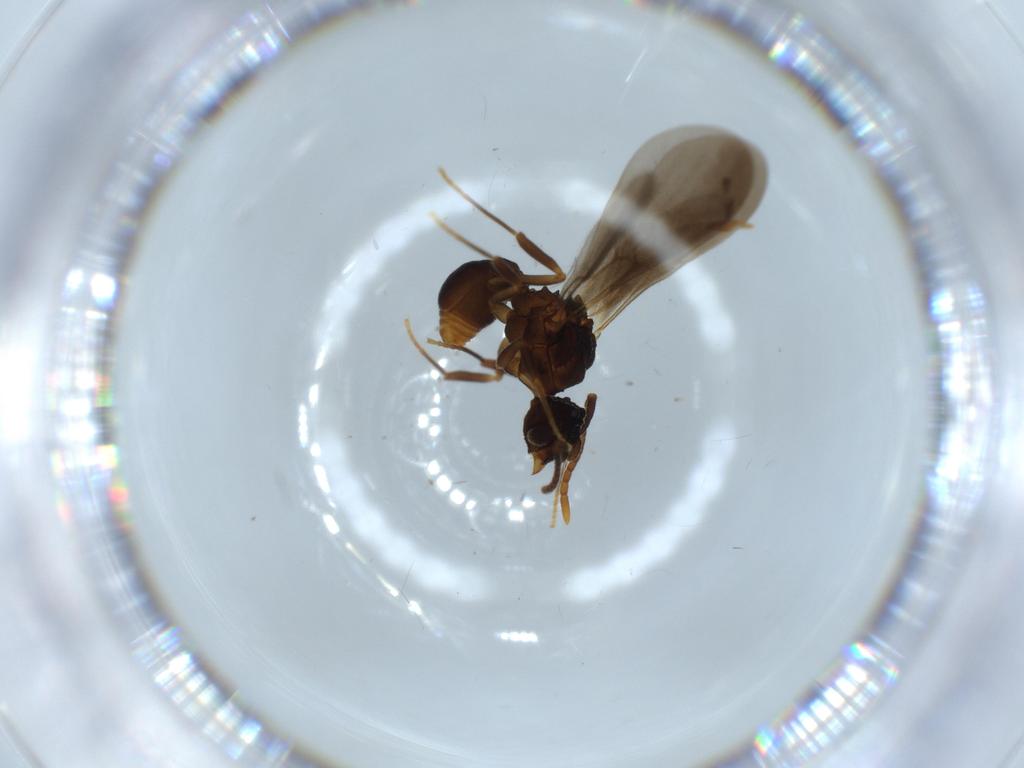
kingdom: Animalia
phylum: Arthropoda
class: Insecta
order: Hymenoptera
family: Formicidae
